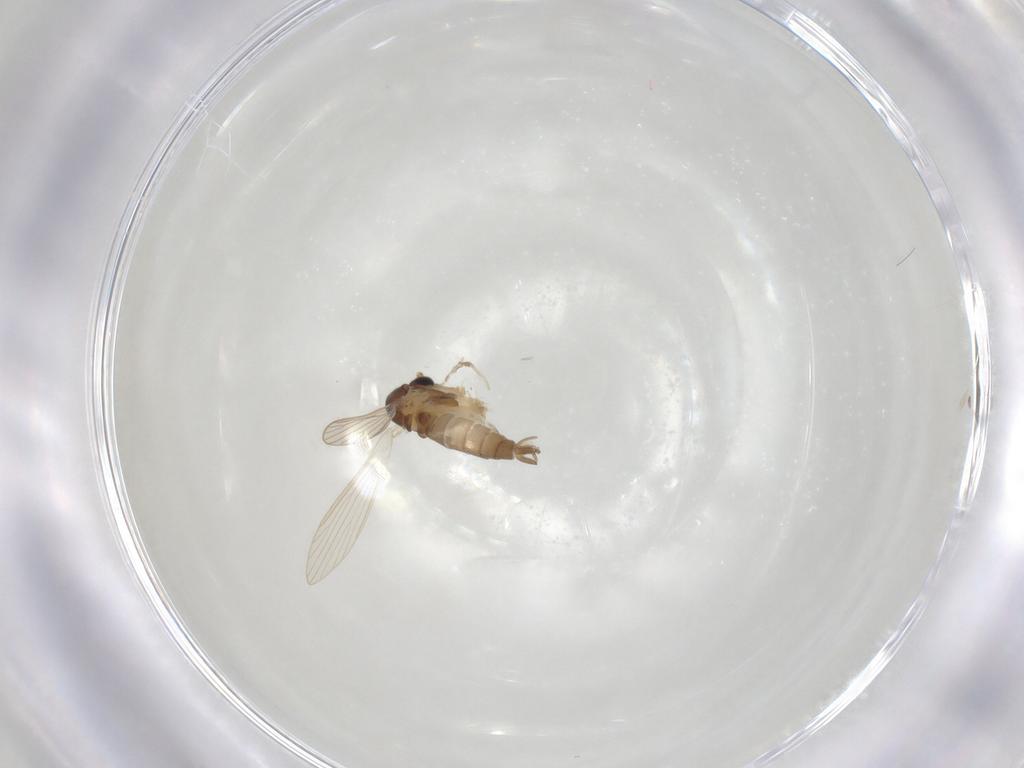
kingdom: Animalia
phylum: Arthropoda
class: Insecta
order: Diptera
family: Psychodidae
